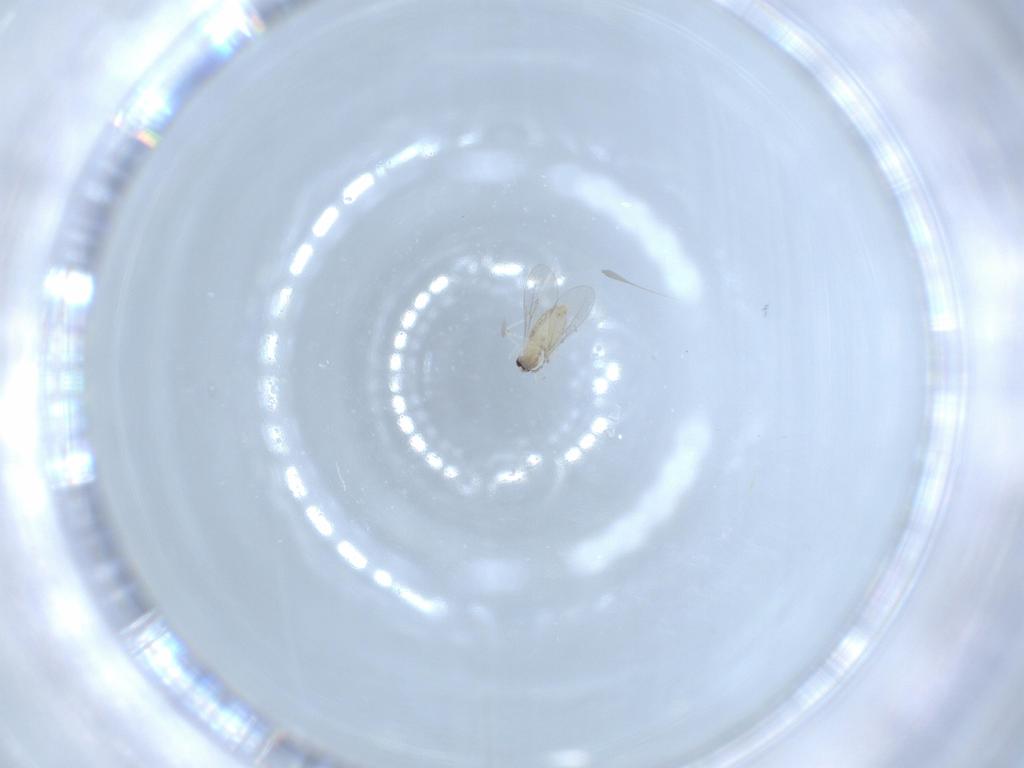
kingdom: Animalia
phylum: Arthropoda
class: Insecta
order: Diptera
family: Cecidomyiidae
